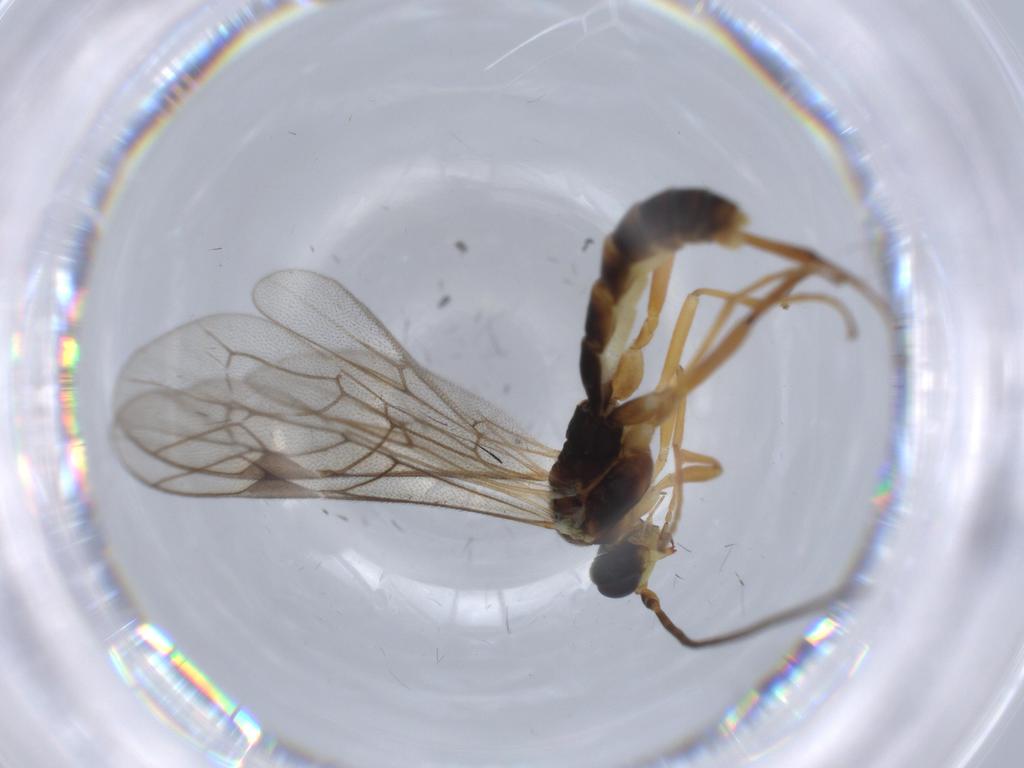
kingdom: Animalia
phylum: Arthropoda
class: Insecta
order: Hymenoptera
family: Ichneumonidae
